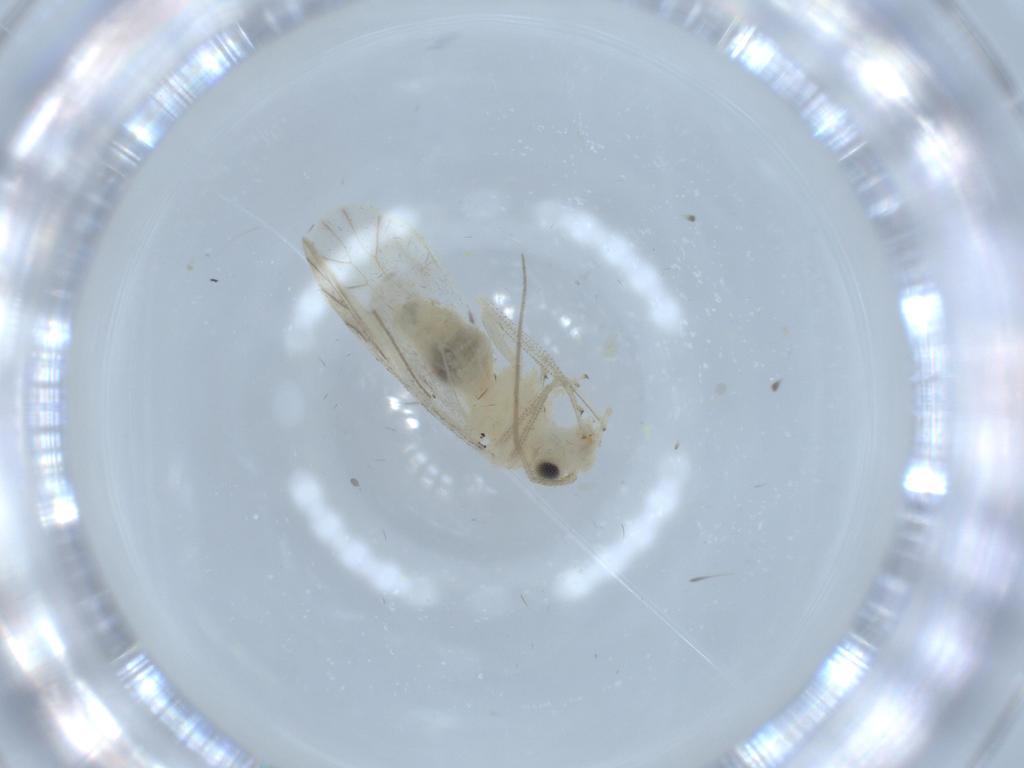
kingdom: Animalia
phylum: Arthropoda
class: Insecta
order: Psocodea
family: Caeciliusidae
